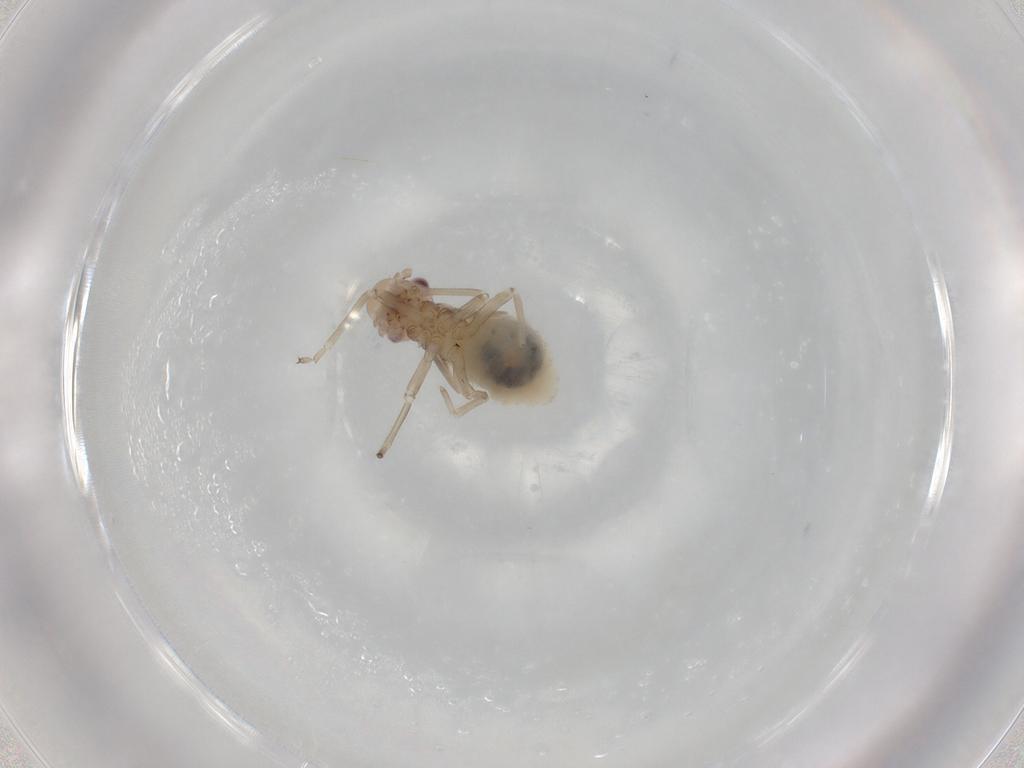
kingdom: Animalia
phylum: Arthropoda
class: Insecta
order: Psocodea
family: Stenopsocidae
